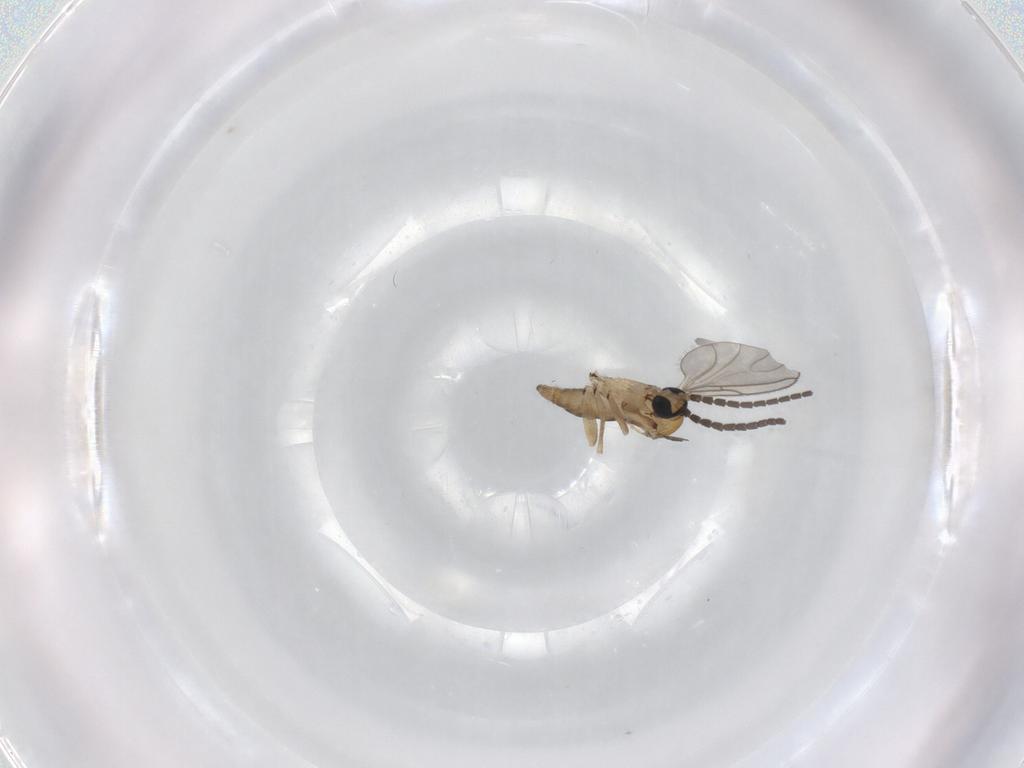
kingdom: Animalia
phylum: Arthropoda
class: Insecta
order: Diptera
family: Sciaridae
